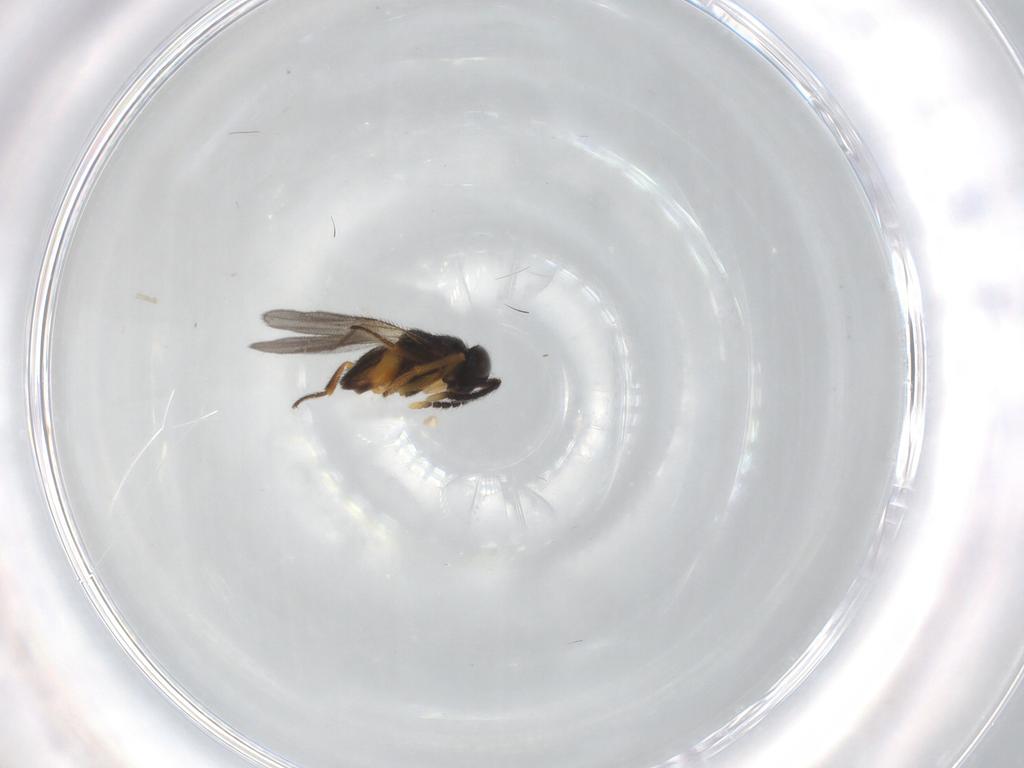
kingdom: Animalia
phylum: Arthropoda
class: Insecta
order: Hymenoptera
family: Encyrtidae
